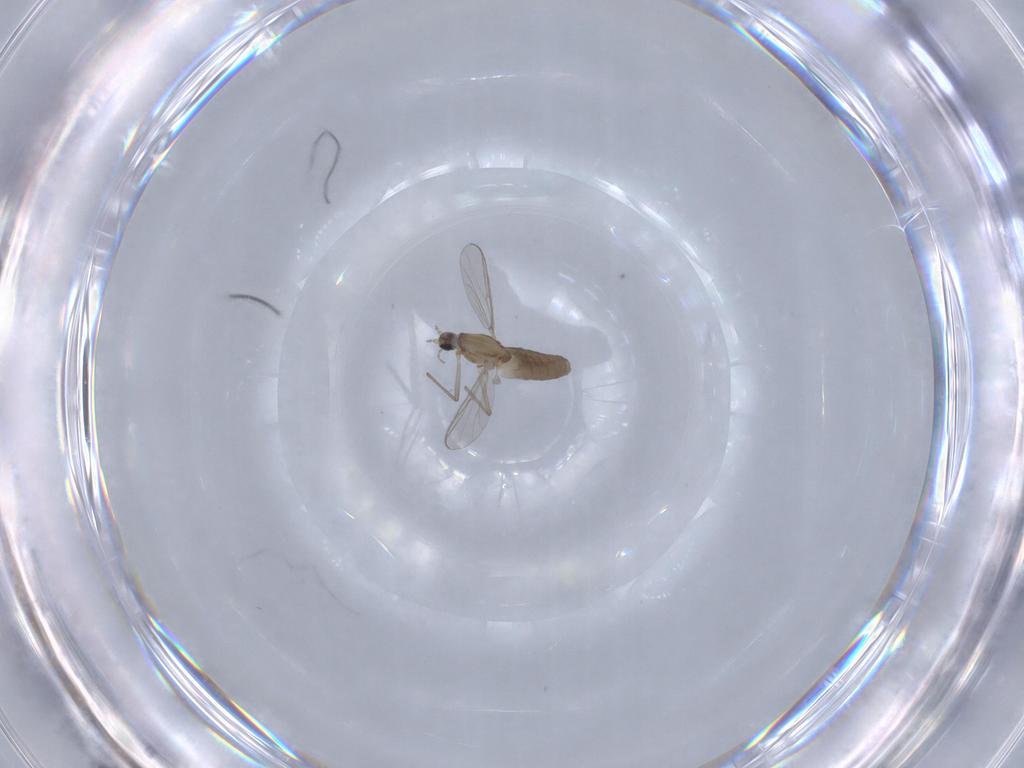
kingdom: Animalia
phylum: Arthropoda
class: Insecta
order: Diptera
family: Chironomidae
